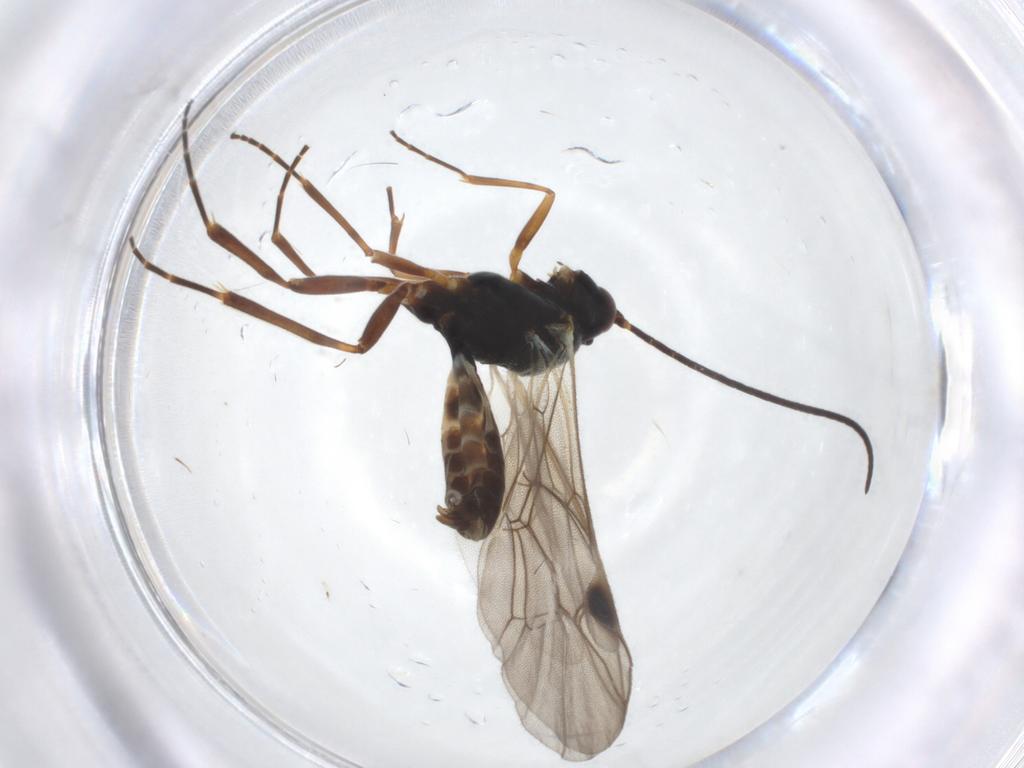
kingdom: Animalia
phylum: Arthropoda
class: Insecta
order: Hymenoptera
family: Ichneumonidae
